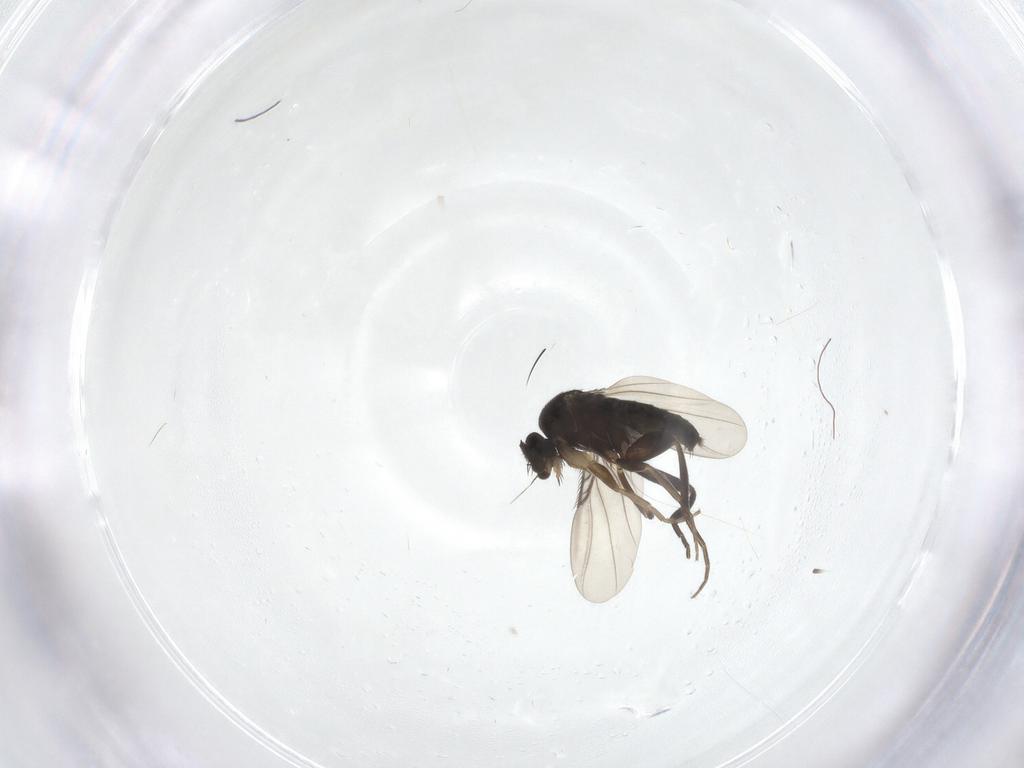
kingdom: Animalia
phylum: Arthropoda
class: Insecta
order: Diptera
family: Phoridae
